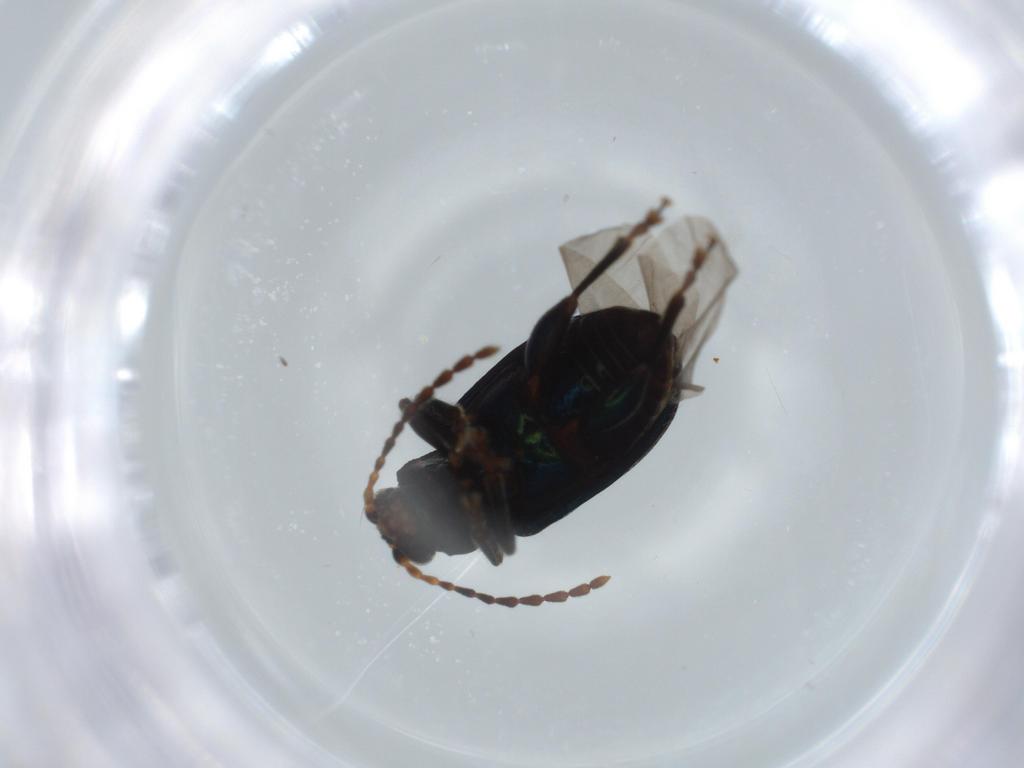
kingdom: Animalia
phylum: Arthropoda
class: Insecta
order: Coleoptera
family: Chrysomelidae
